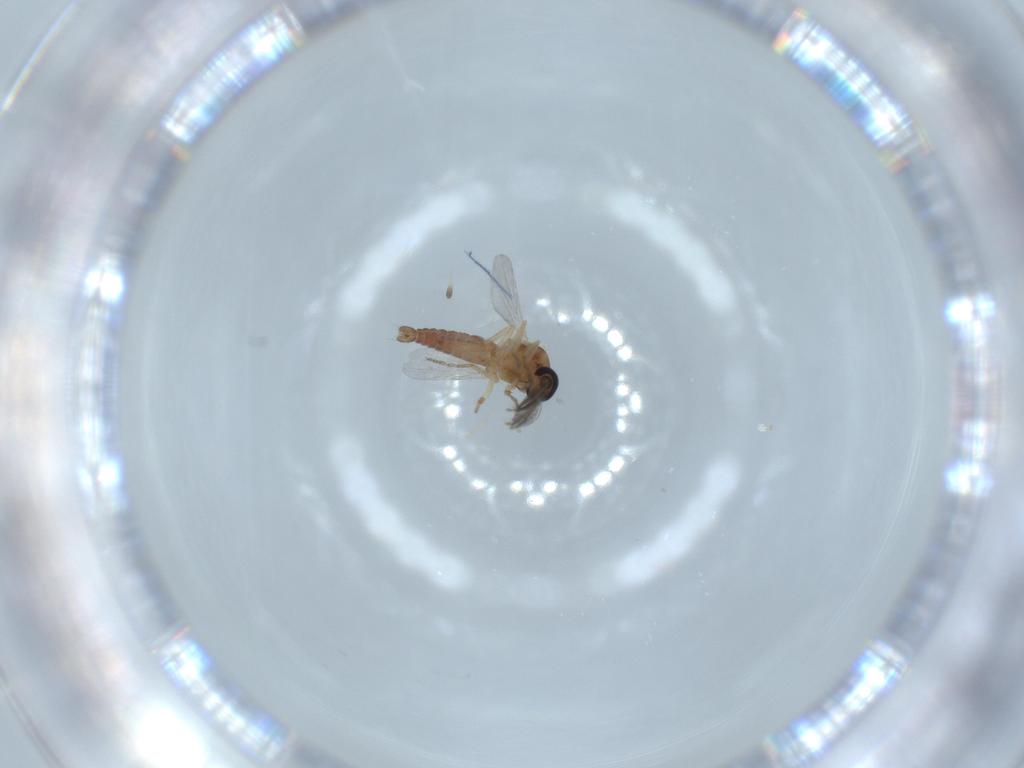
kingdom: Animalia
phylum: Arthropoda
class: Insecta
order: Diptera
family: Ceratopogonidae
